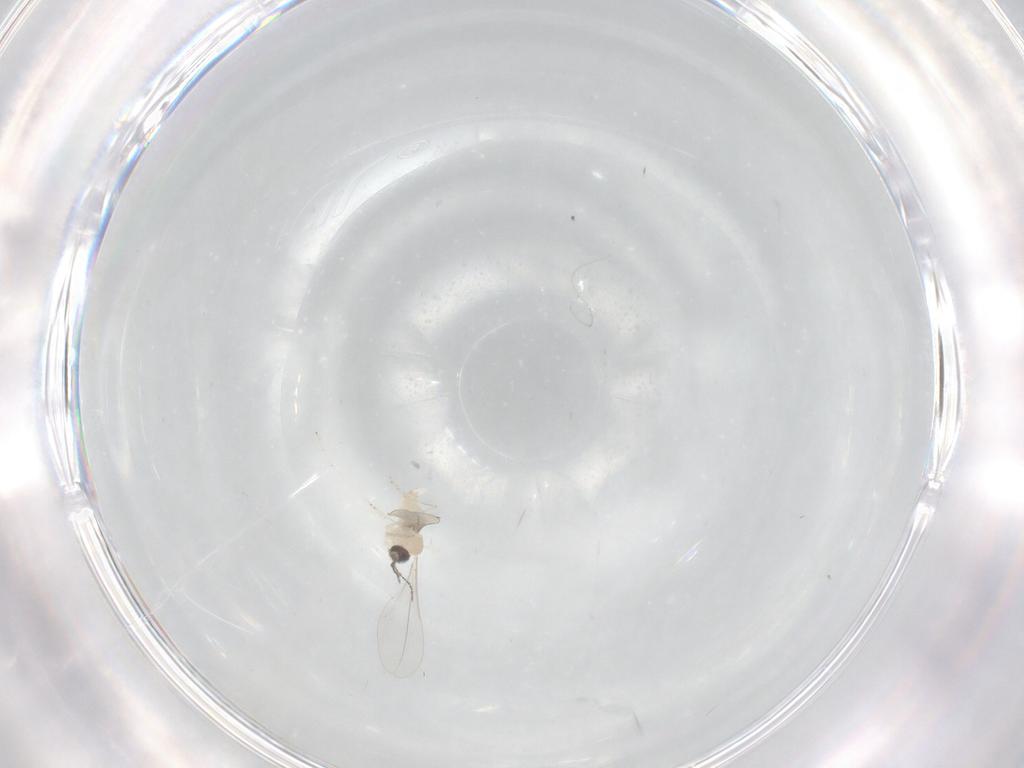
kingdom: Animalia
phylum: Arthropoda
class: Insecta
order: Diptera
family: Cecidomyiidae
